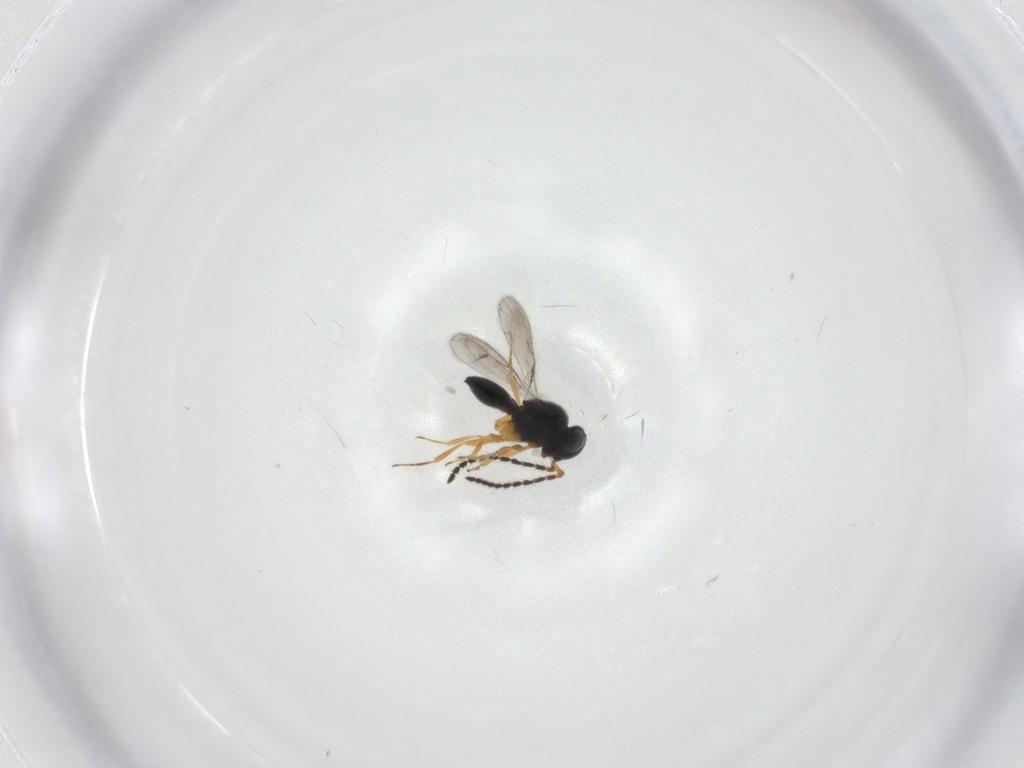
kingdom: Animalia
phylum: Arthropoda
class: Insecta
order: Hymenoptera
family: Scelionidae
